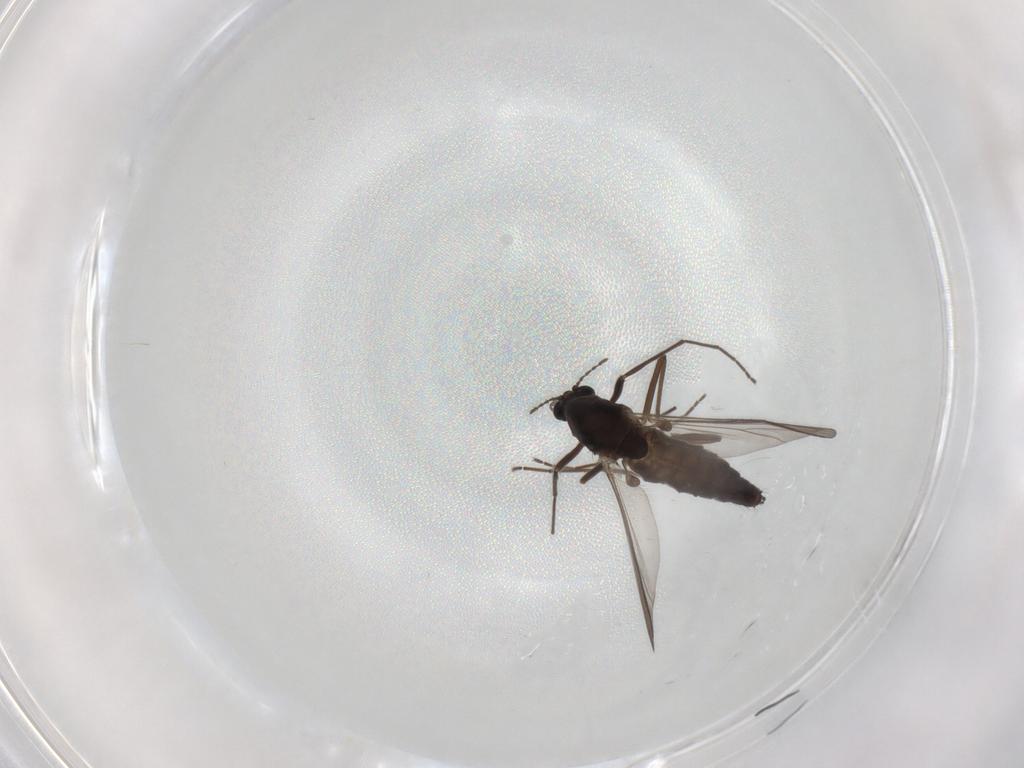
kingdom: Animalia
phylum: Arthropoda
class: Insecta
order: Diptera
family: Chironomidae
